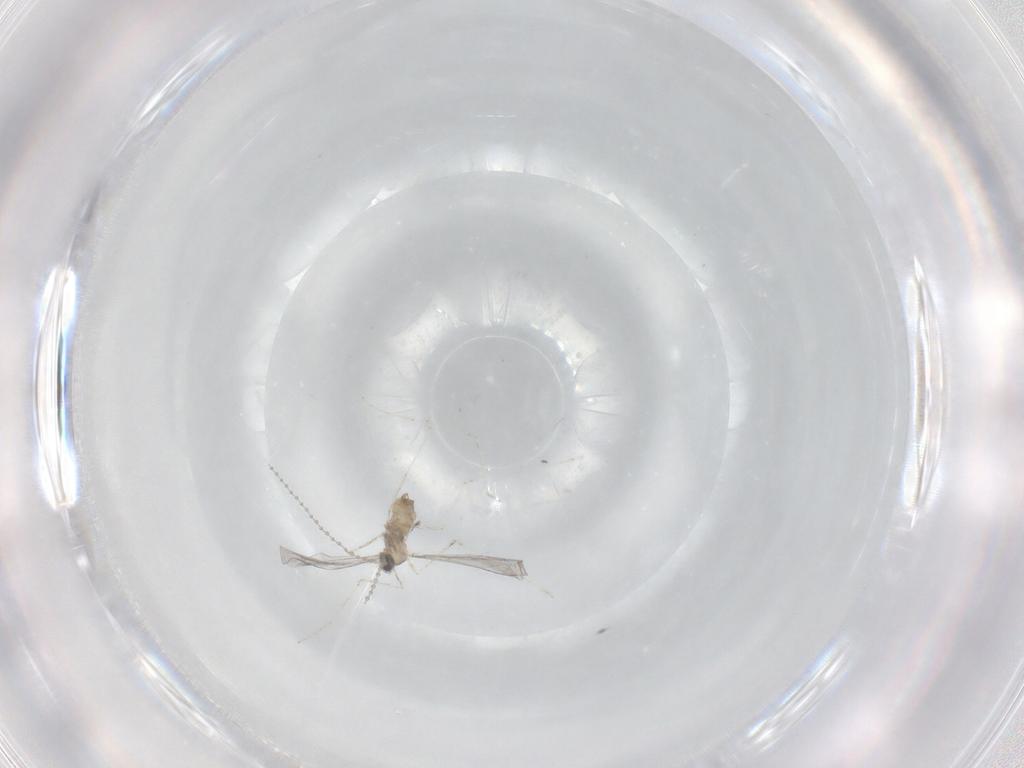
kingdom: Animalia
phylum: Arthropoda
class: Insecta
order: Diptera
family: Cecidomyiidae
